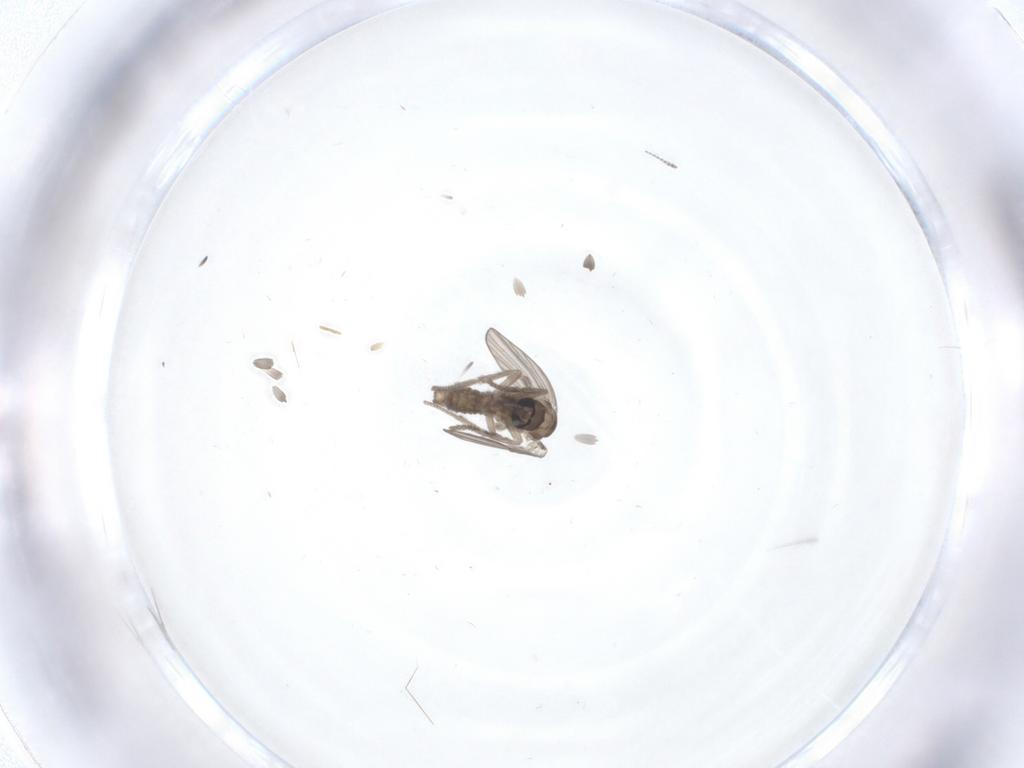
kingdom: Animalia
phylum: Arthropoda
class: Insecta
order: Diptera
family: Psychodidae
